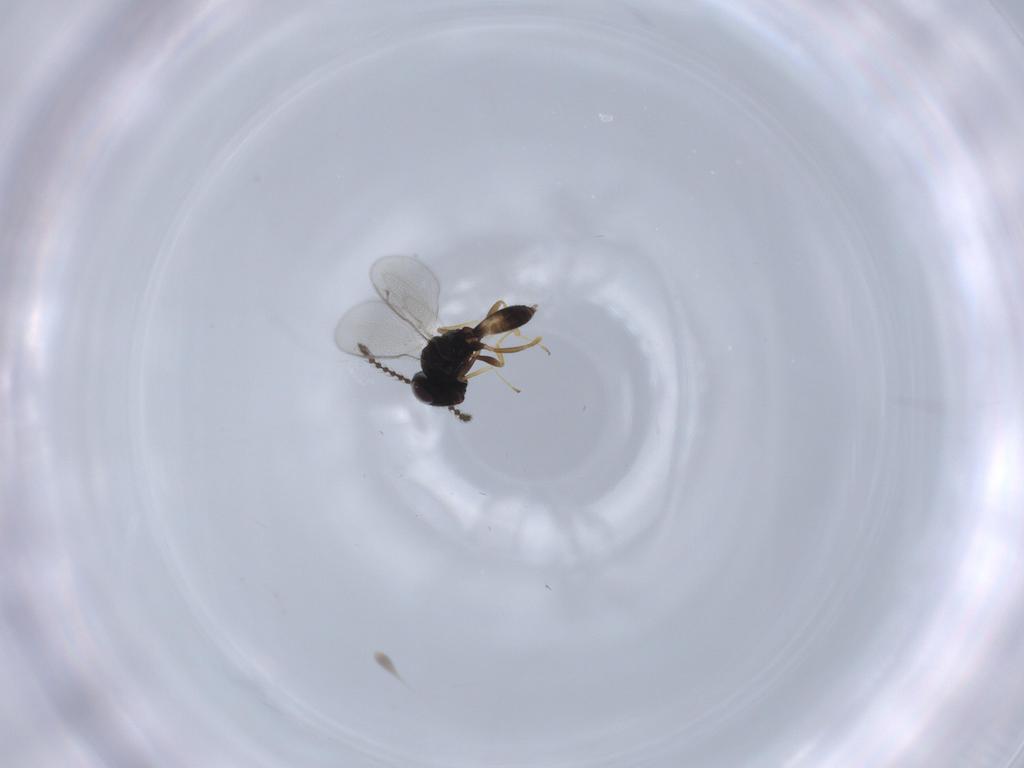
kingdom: Animalia
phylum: Arthropoda
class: Insecta
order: Hymenoptera
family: Pteromalidae
